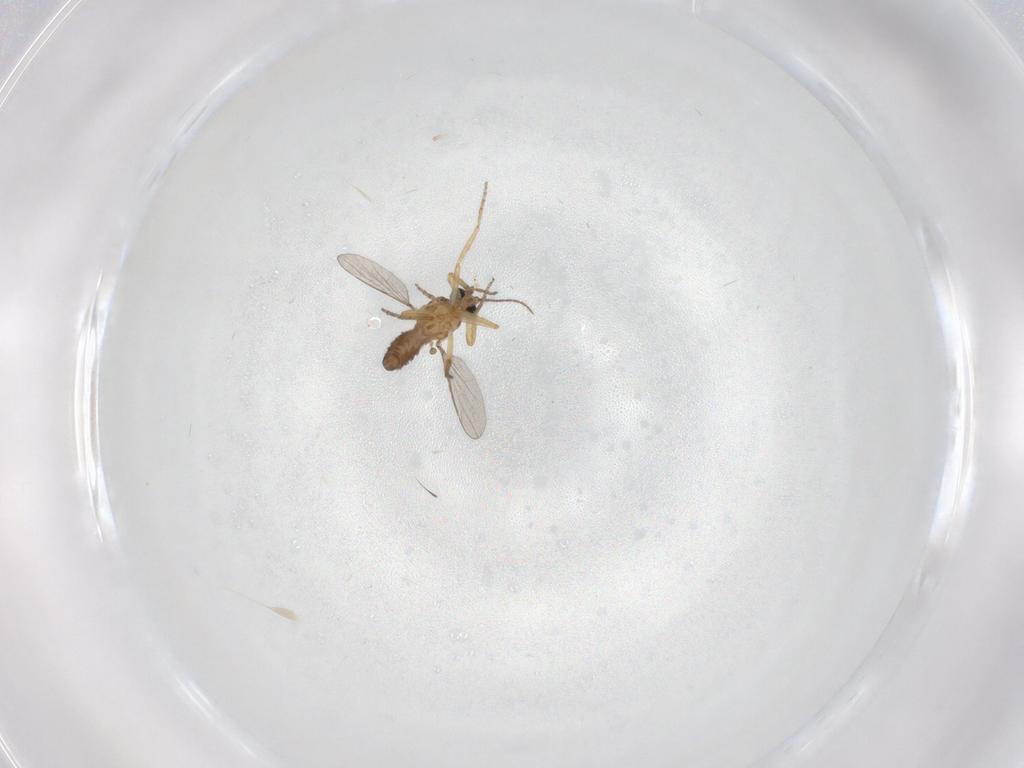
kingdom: Animalia
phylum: Arthropoda
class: Insecta
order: Diptera
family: Ceratopogonidae
